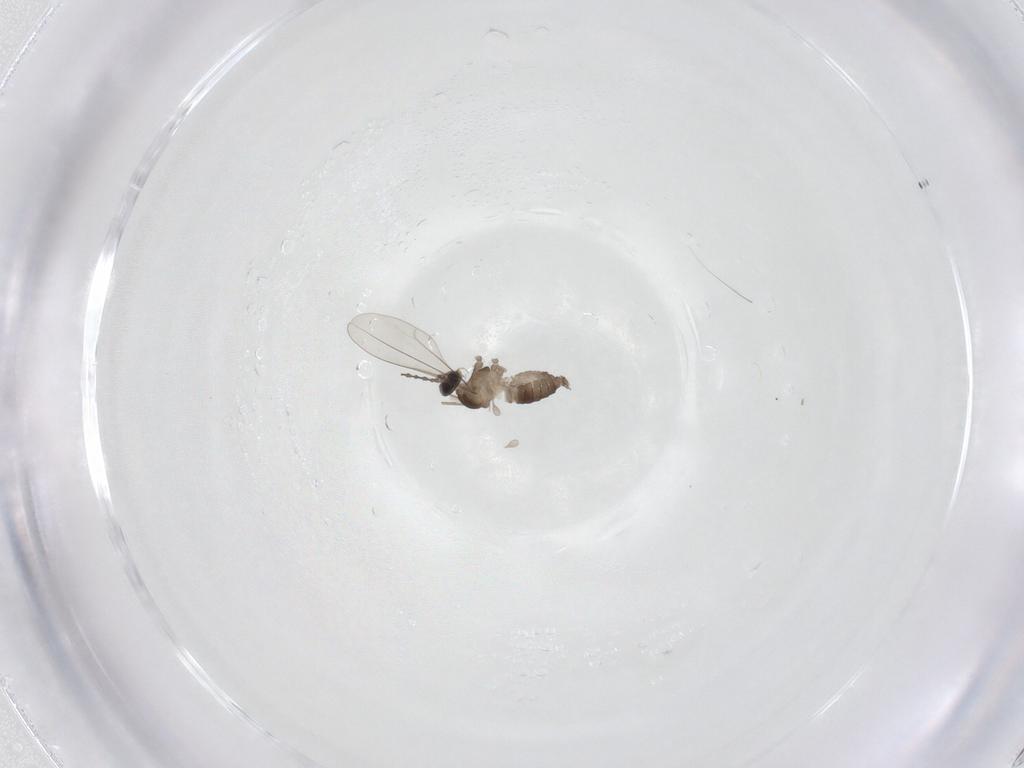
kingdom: Animalia
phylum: Arthropoda
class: Insecta
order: Diptera
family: Cecidomyiidae
